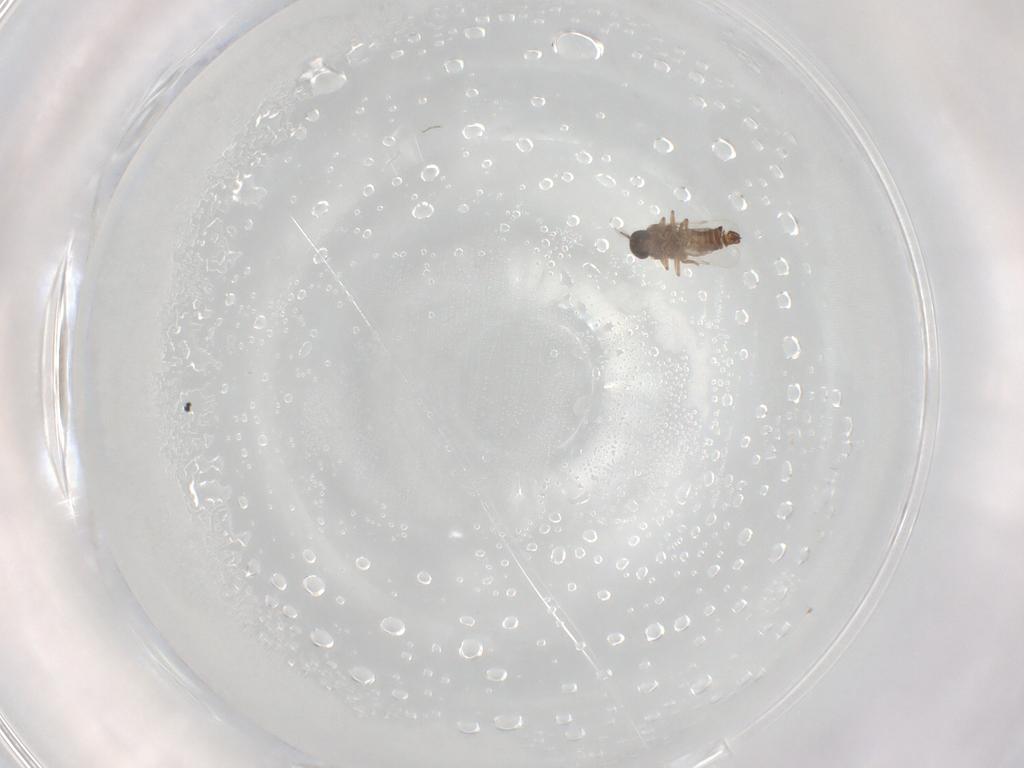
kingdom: Animalia
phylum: Arthropoda
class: Insecta
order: Diptera
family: Ceratopogonidae
